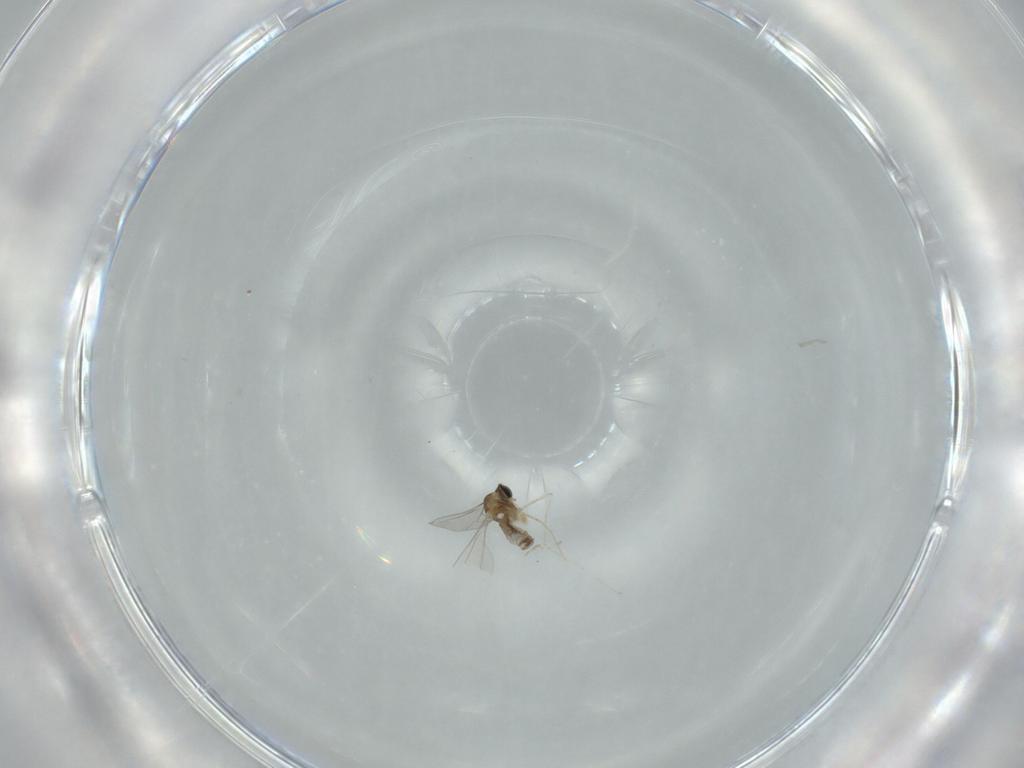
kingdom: Animalia
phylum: Arthropoda
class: Insecta
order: Diptera
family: Cecidomyiidae
